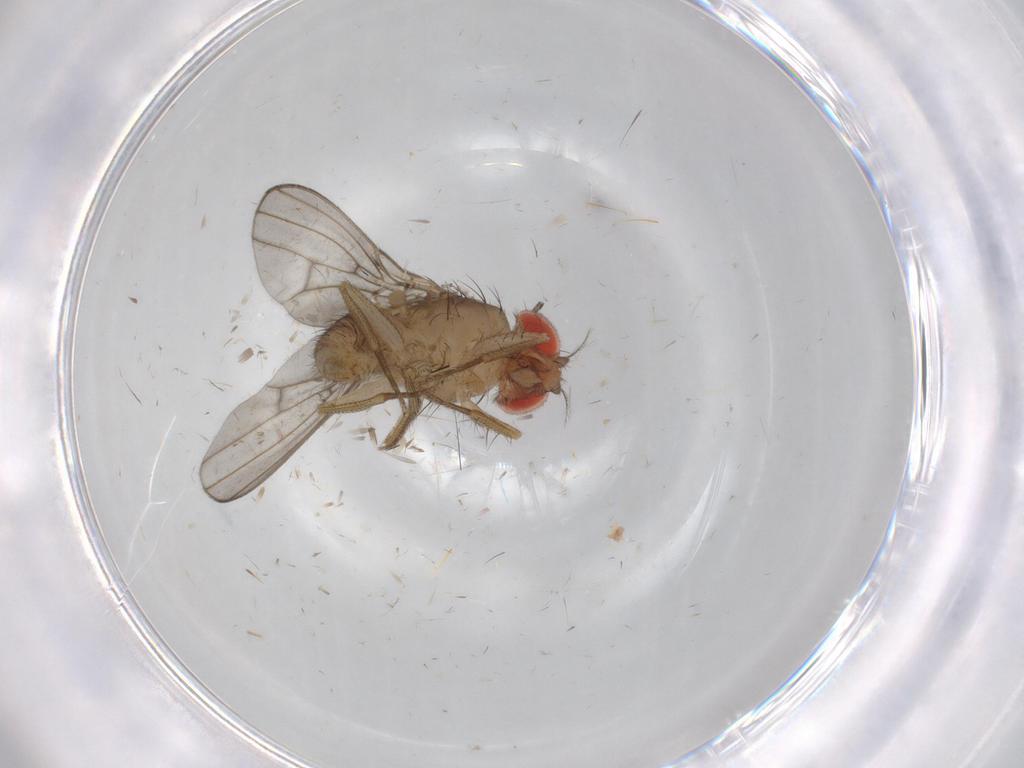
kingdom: Animalia
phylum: Arthropoda
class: Insecta
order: Diptera
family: Drosophilidae
